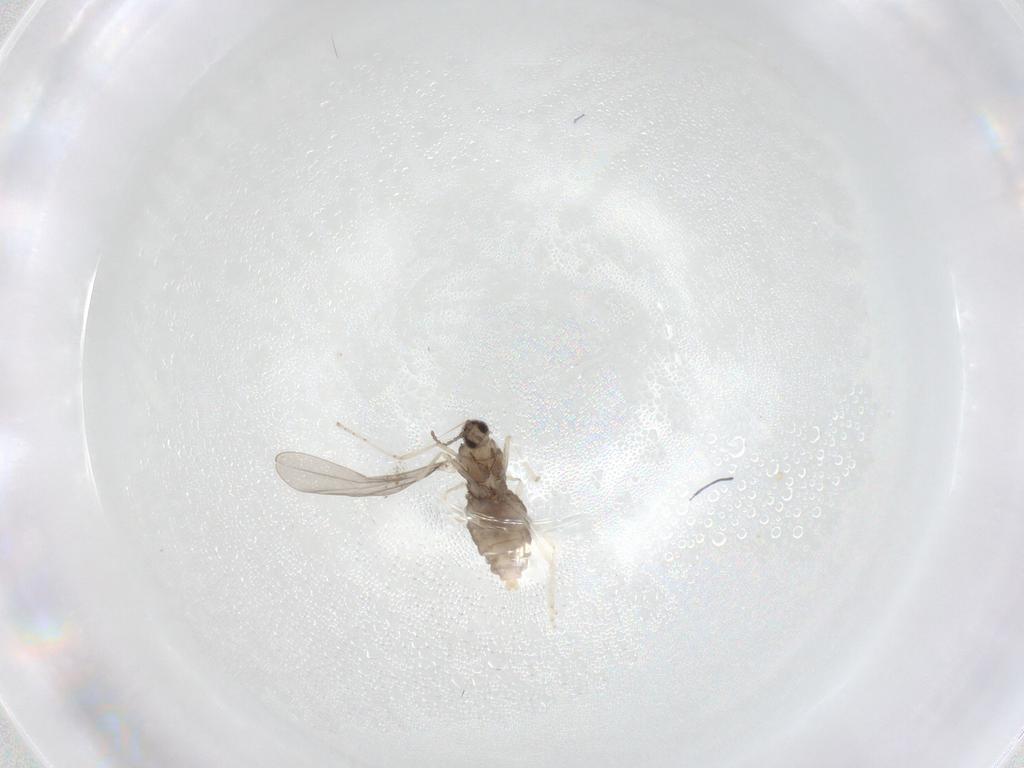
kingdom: Animalia
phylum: Arthropoda
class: Insecta
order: Diptera
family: Cecidomyiidae
